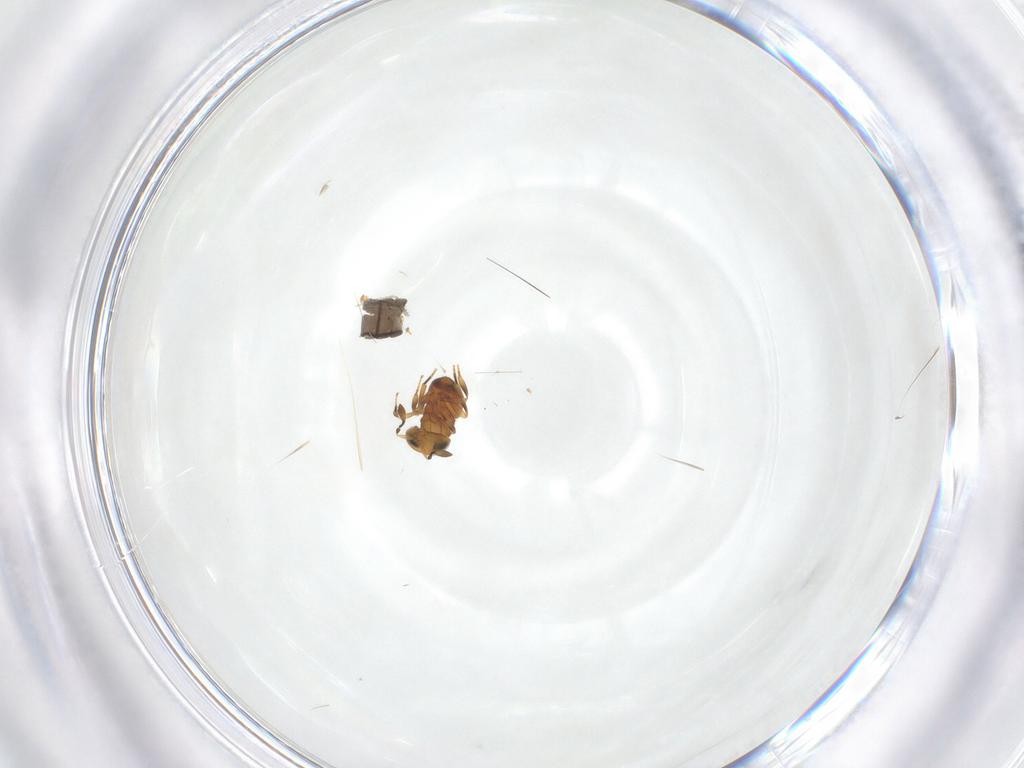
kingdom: Animalia
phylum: Arthropoda
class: Insecta
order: Hymenoptera
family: Scelionidae
